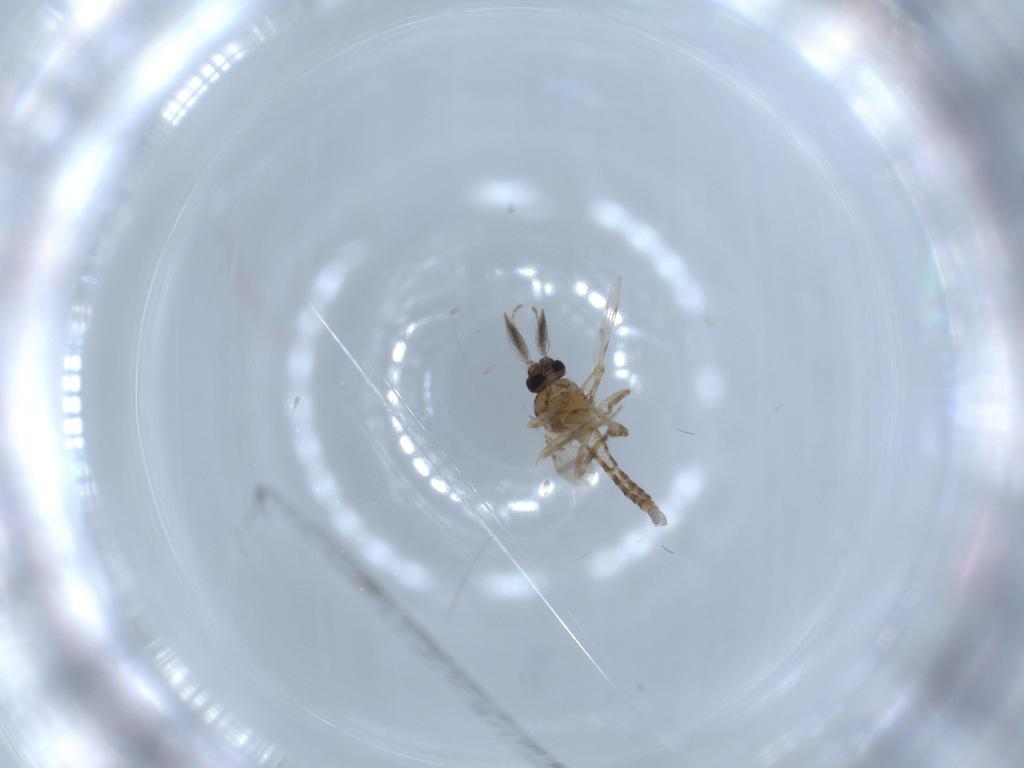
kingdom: Animalia
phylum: Arthropoda
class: Insecta
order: Diptera
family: Ceratopogonidae
